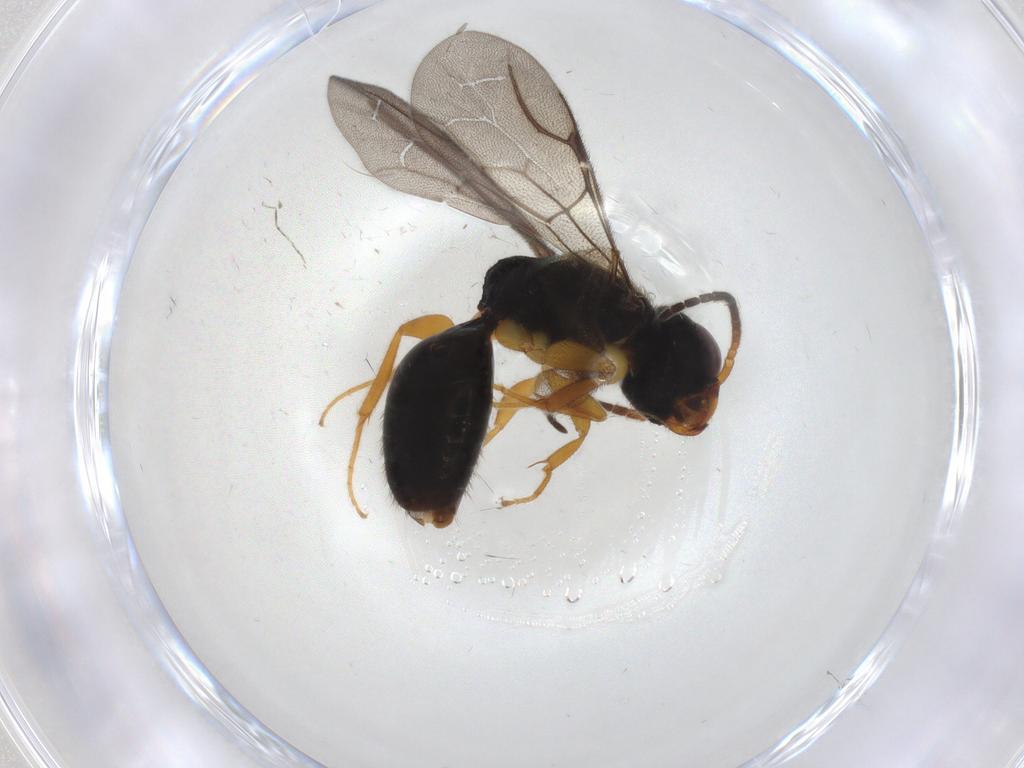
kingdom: Animalia
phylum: Arthropoda
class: Insecta
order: Hymenoptera
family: Bethylidae
